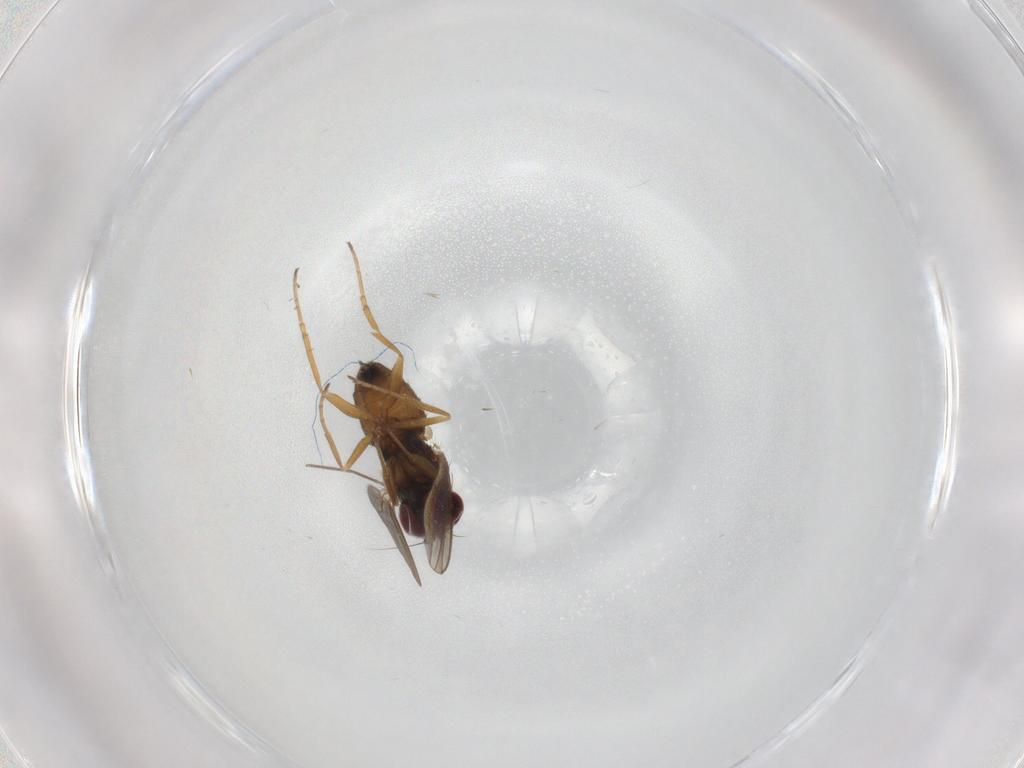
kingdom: Animalia
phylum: Arthropoda
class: Insecta
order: Diptera
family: Dolichopodidae
